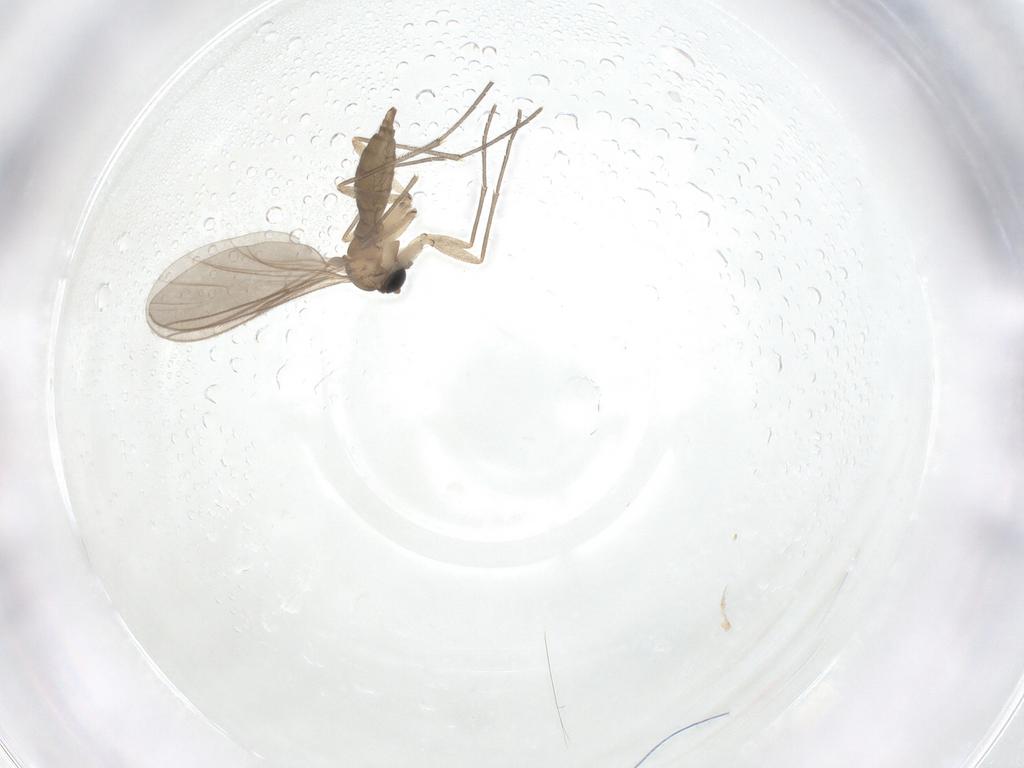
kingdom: Animalia
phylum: Arthropoda
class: Insecta
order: Diptera
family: Sciaridae
